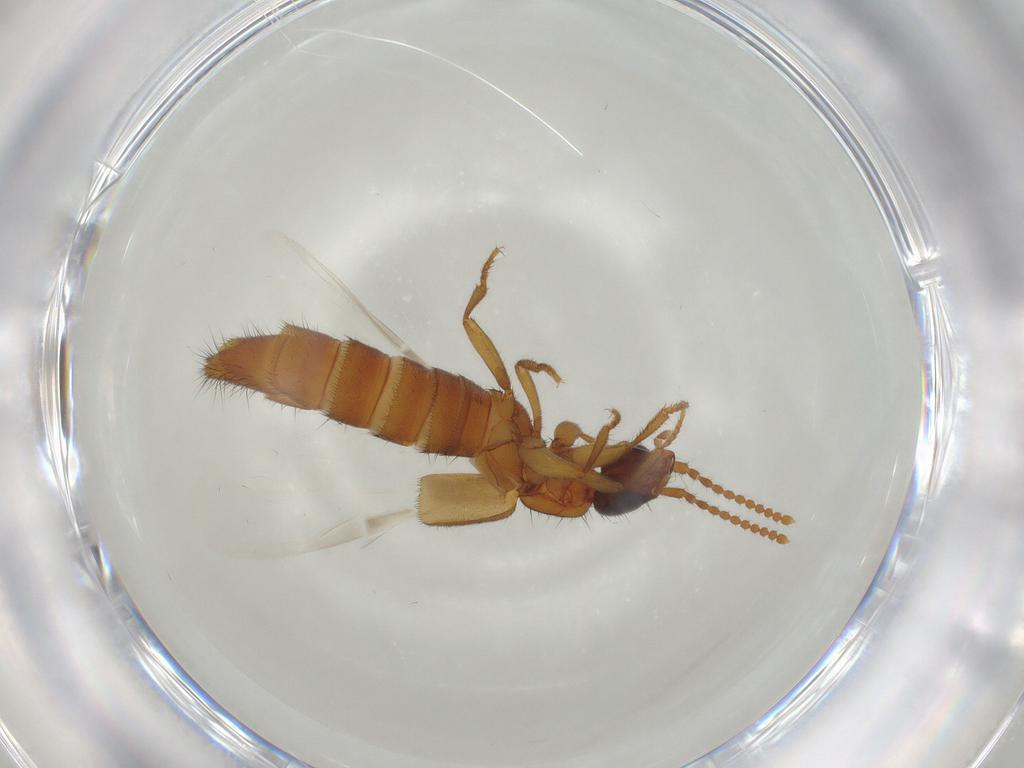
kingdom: Animalia
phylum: Arthropoda
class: Insecta
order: Coleoptera
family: Staphylinidae
